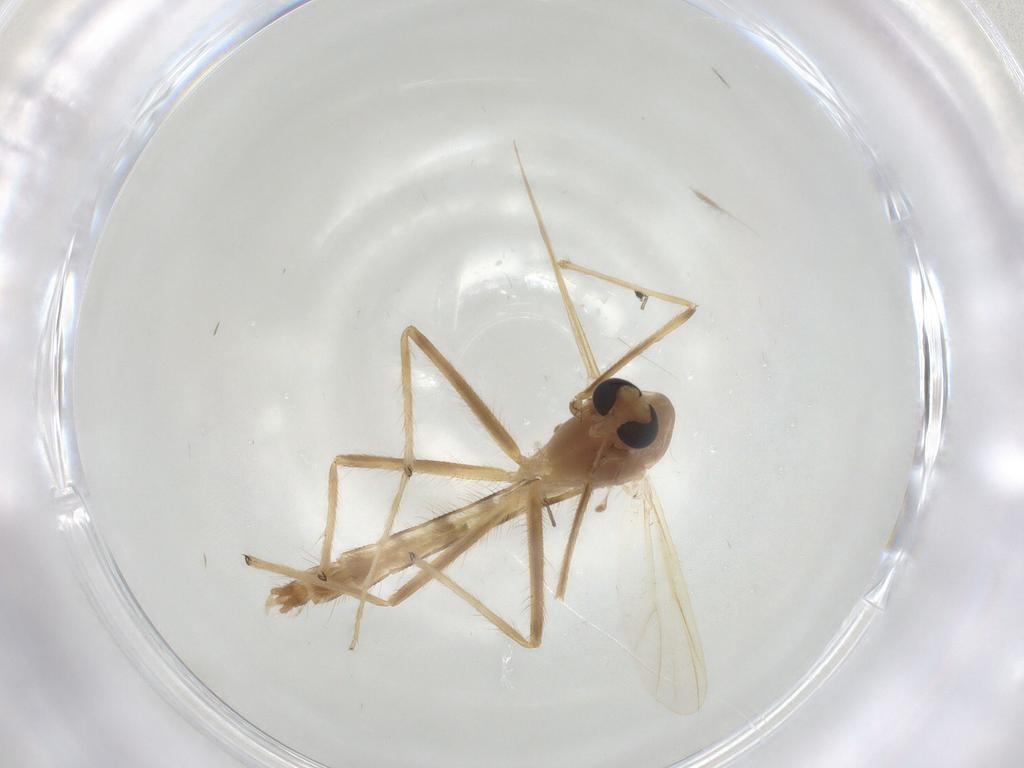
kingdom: Animalia
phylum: Arthropoda
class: Insecta
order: Diptera
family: Chironomidae
